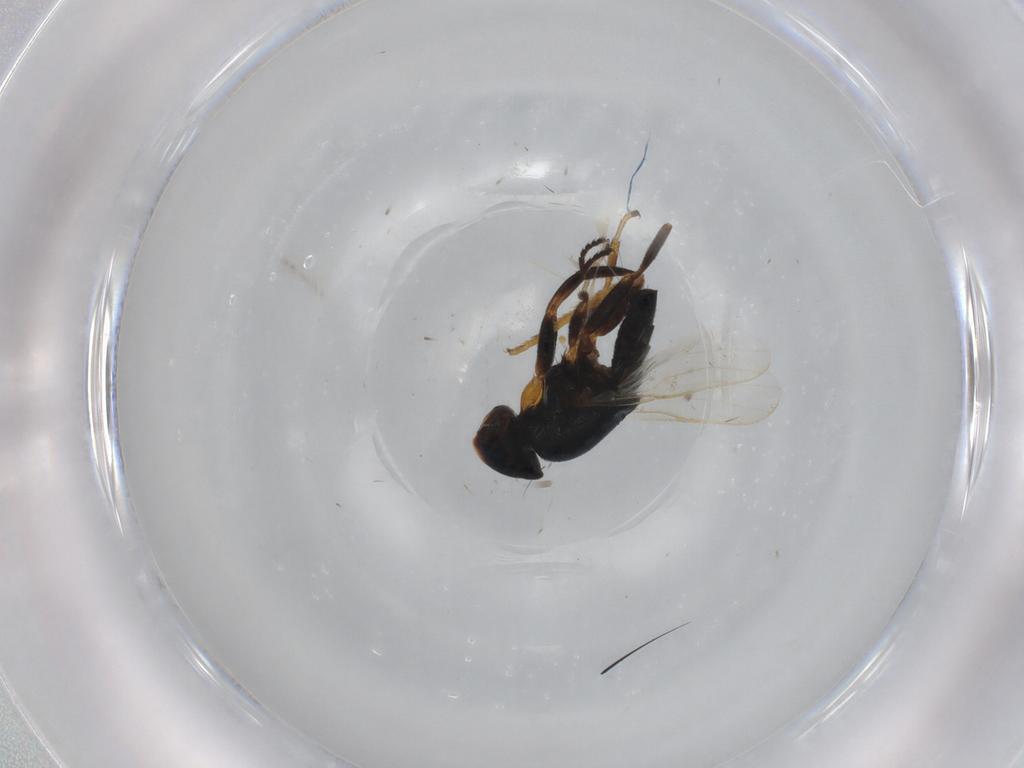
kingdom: Animalia
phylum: Arthropoda
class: Insecta
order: Diptera
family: Chloropidae
